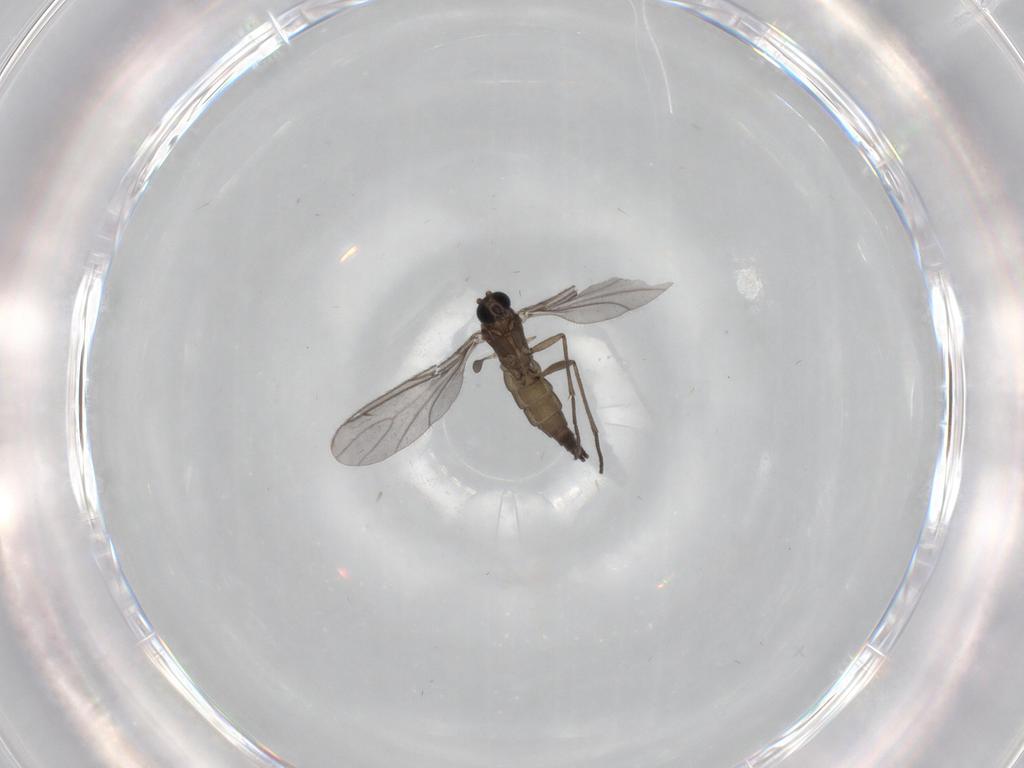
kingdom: Animalia
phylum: Arthropoda
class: Insecta
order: Diptera
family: Sciaridae
